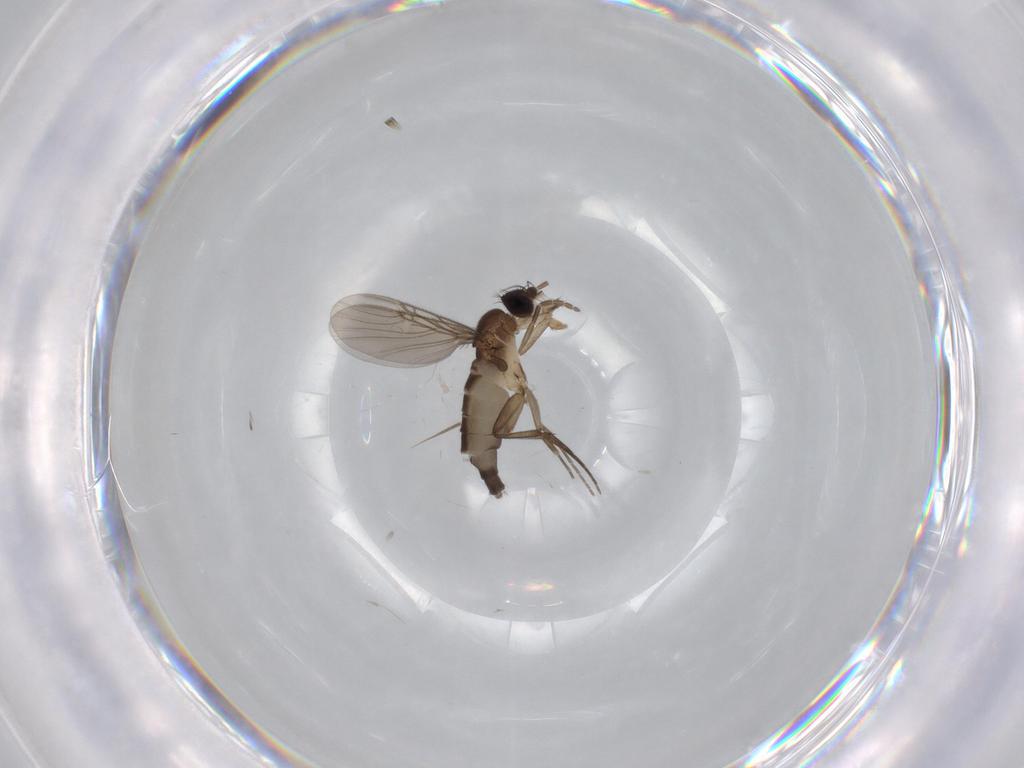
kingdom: Animalia
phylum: Arthropoda
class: Insecta
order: Diptera
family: Phoridae
